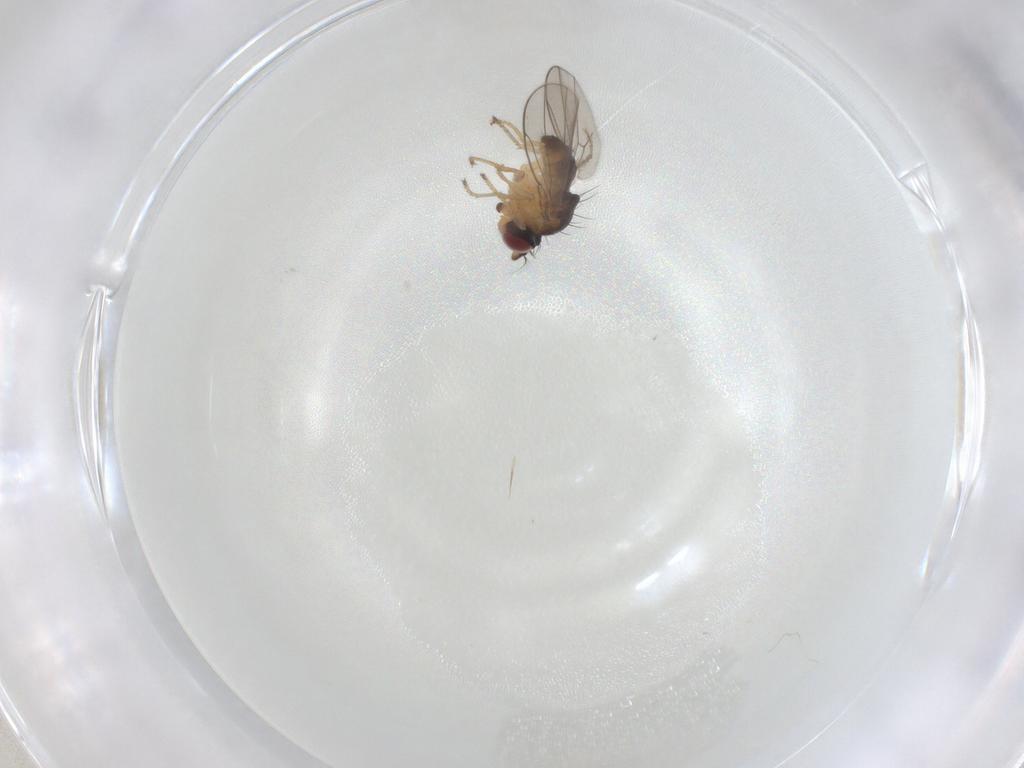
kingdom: Animalia
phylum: Arthropoda
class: Insecta
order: Diptera
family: Ephydridae
